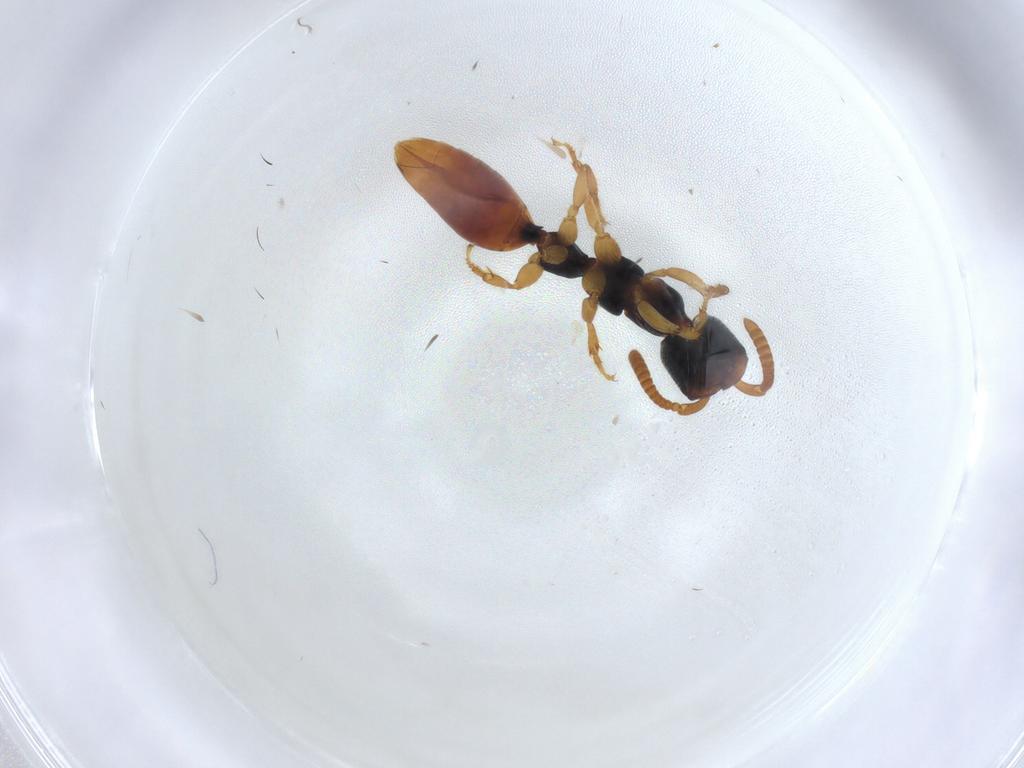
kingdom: Animalia
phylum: Arthropoda
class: Insecta
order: Hymenoptera
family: Bethylidae
